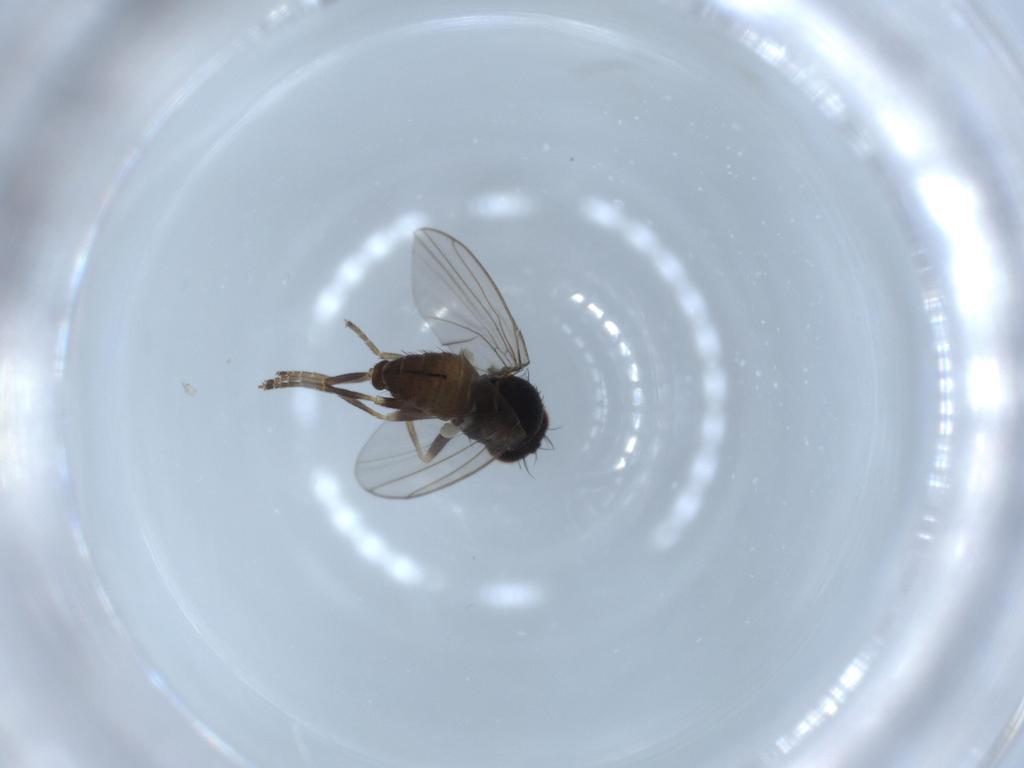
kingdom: Animalia
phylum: Arthropoda
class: Insecta
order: Diptera
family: Agromyzidae
